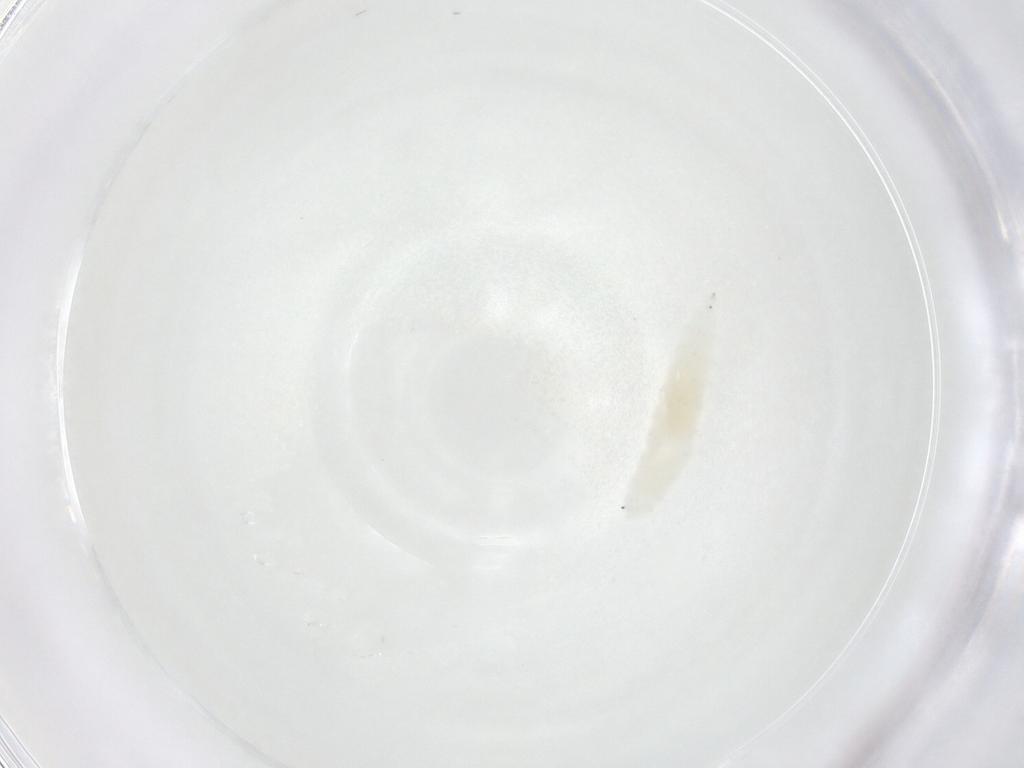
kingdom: Animalia
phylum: Arthropoda
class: Insecta
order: Diptera
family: Cecidomyiidae
